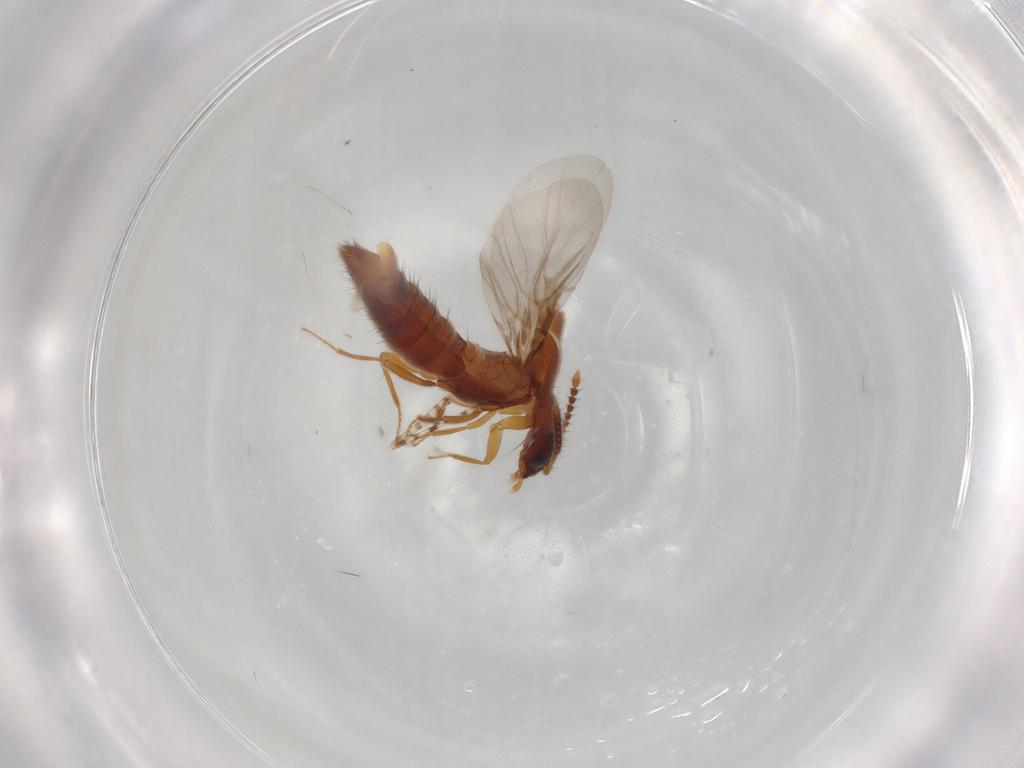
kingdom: Animalia
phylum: Arthropoda
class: Insecta
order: Coleoptera
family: Staphylinidae
